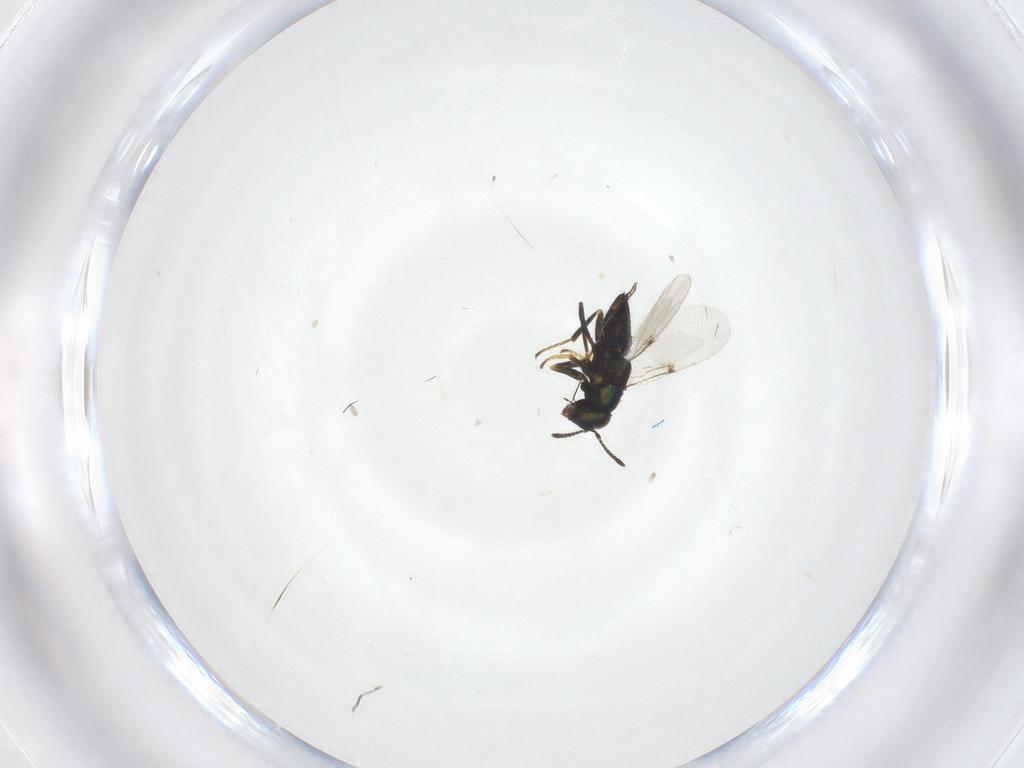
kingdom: Animalia
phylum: Arthropoda
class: Insecta
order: Hymenoptera
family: Encyrtidae
